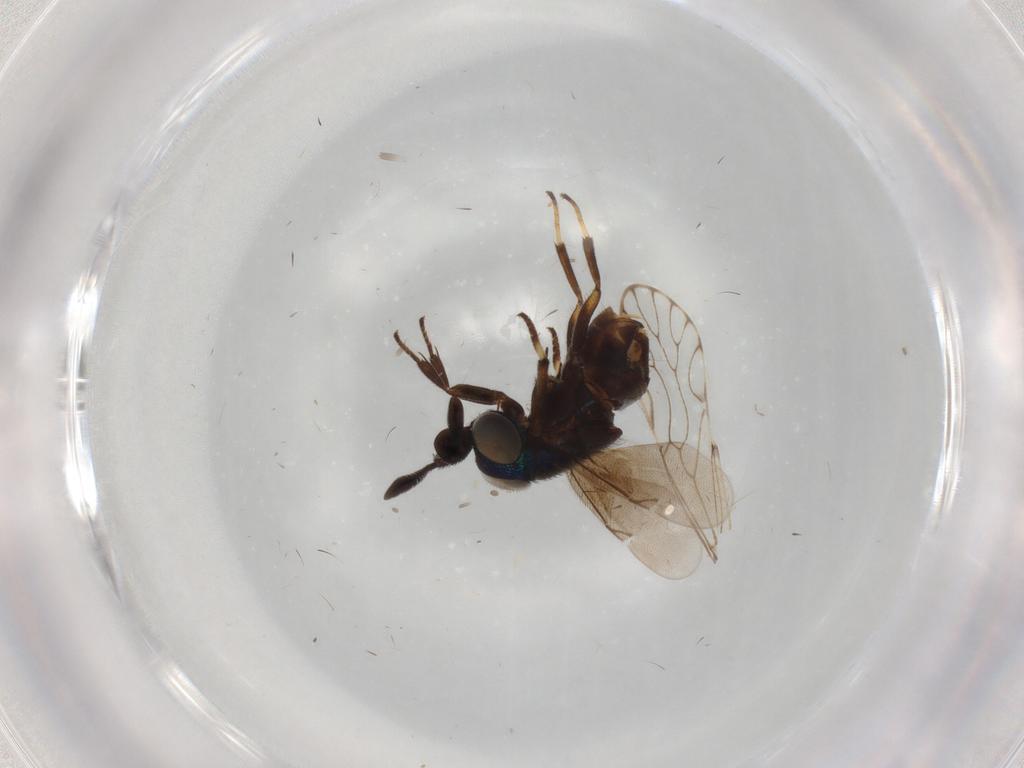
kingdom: Animalia
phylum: Arthropoda
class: Insecta
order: Hymenoptera
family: Encyrtidae
